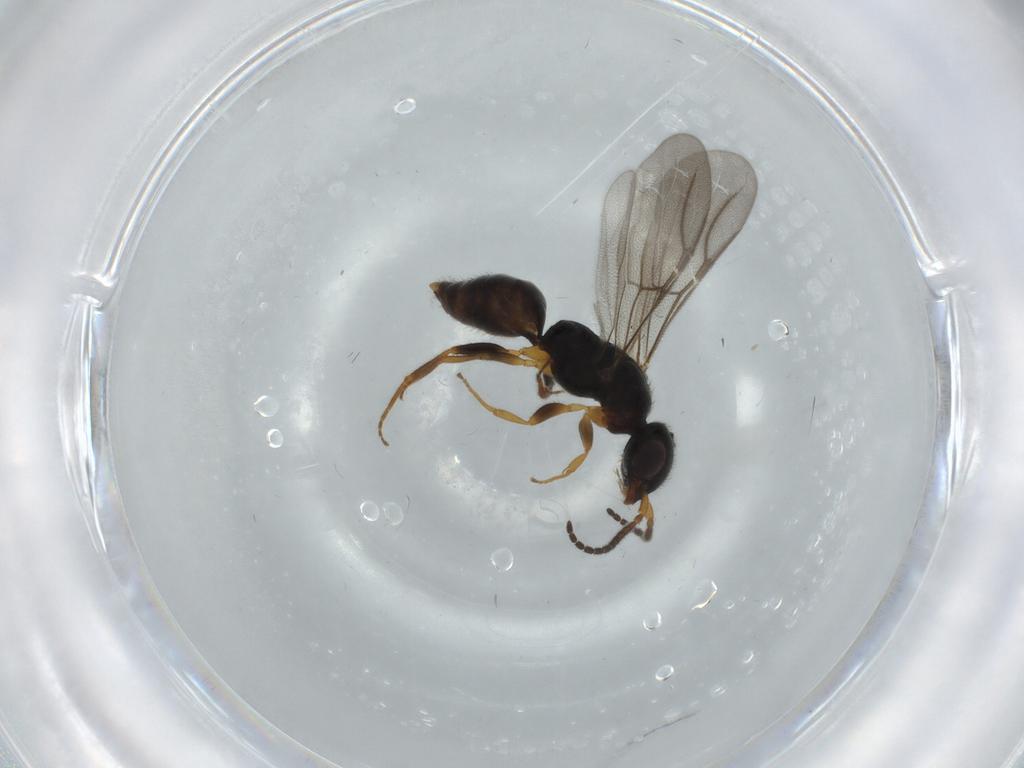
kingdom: Animalia
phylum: Arthropoda
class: Insecta
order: Hymenoptera
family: Bethylidae
